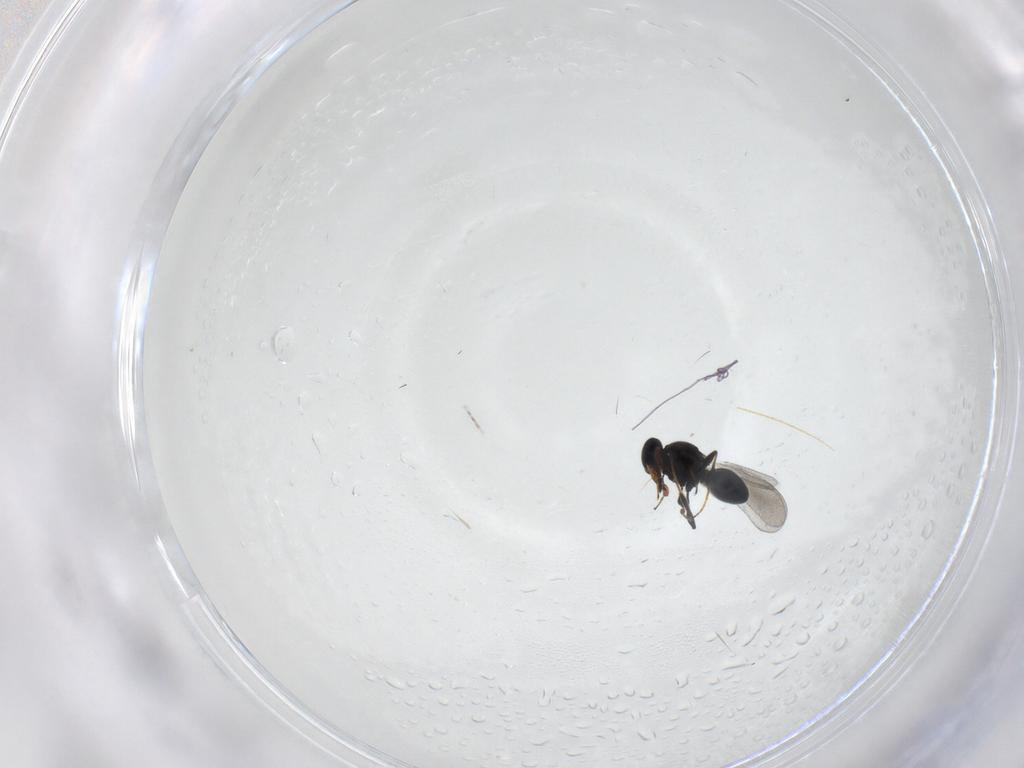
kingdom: Animalia
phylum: Arthropoda
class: Insecta
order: Hymenoptera
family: Platygastridae
